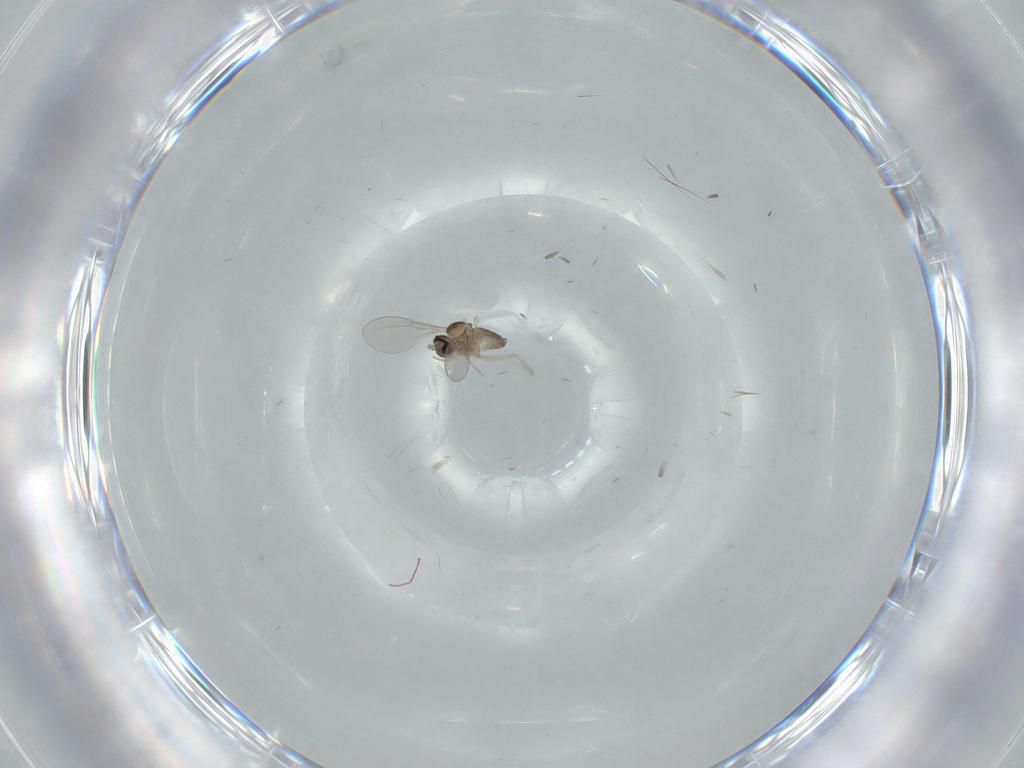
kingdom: Animalia
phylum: Arthropoda
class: Insecta
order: Diptera
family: Cecidomyiidae
